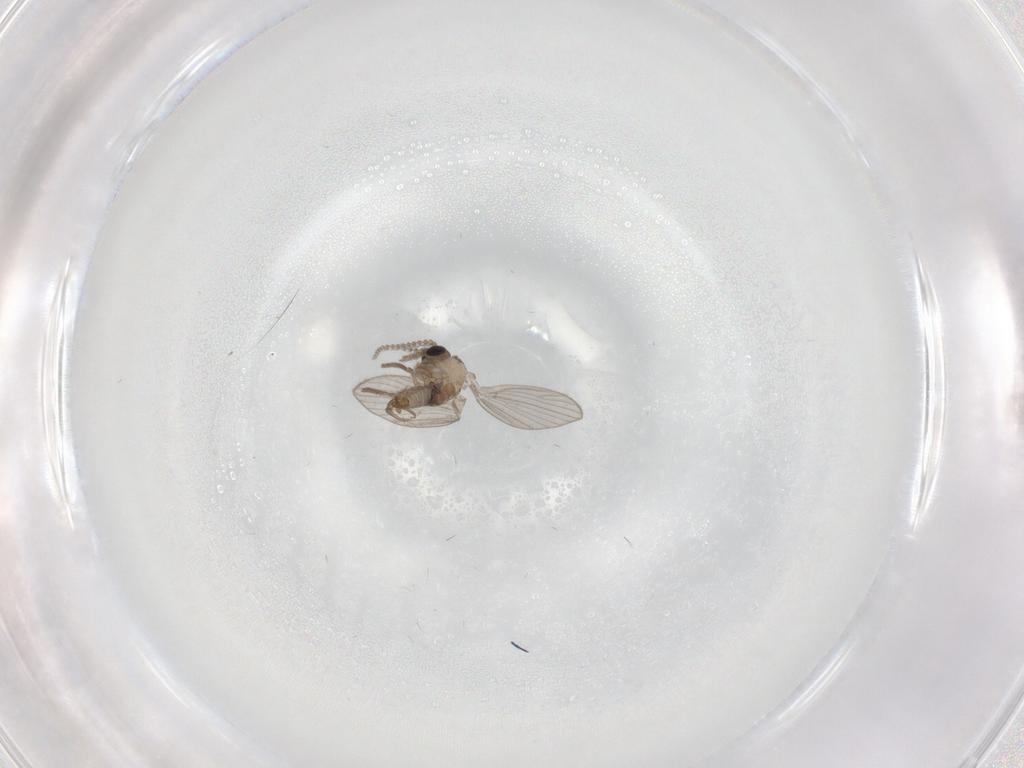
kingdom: Animalia
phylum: Arthropoda
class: Insecta
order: Diptera
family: Psychodidae
